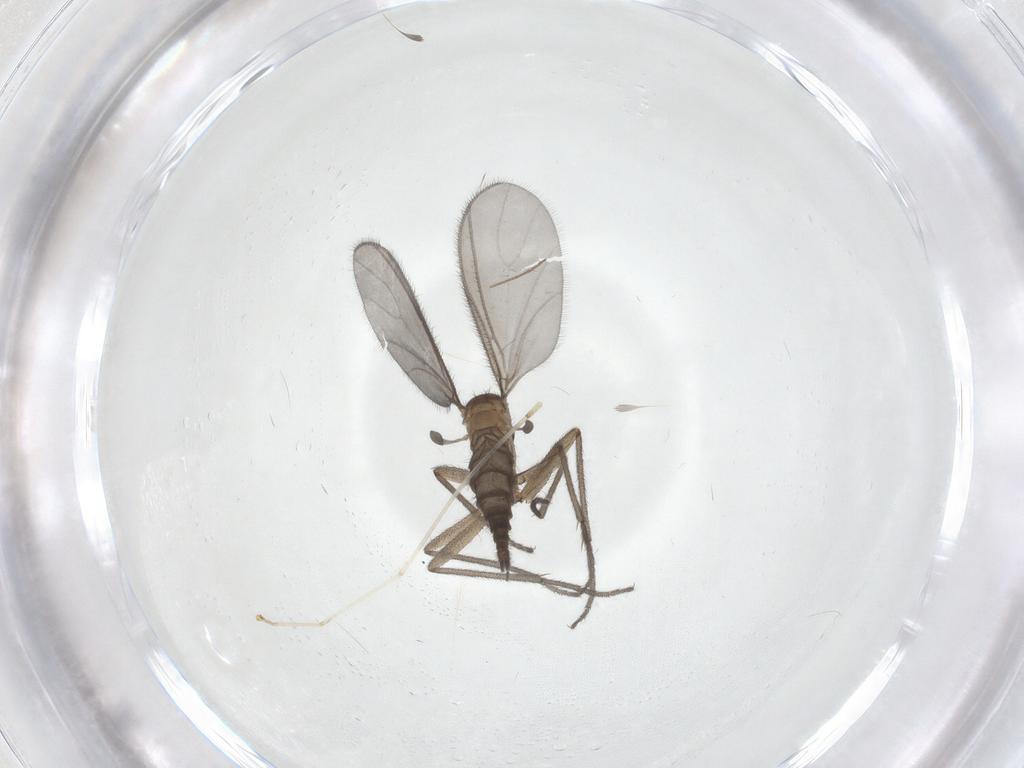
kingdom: Animalia
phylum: Arthropoda
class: Insecta
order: Diptera
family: Sciaridae
